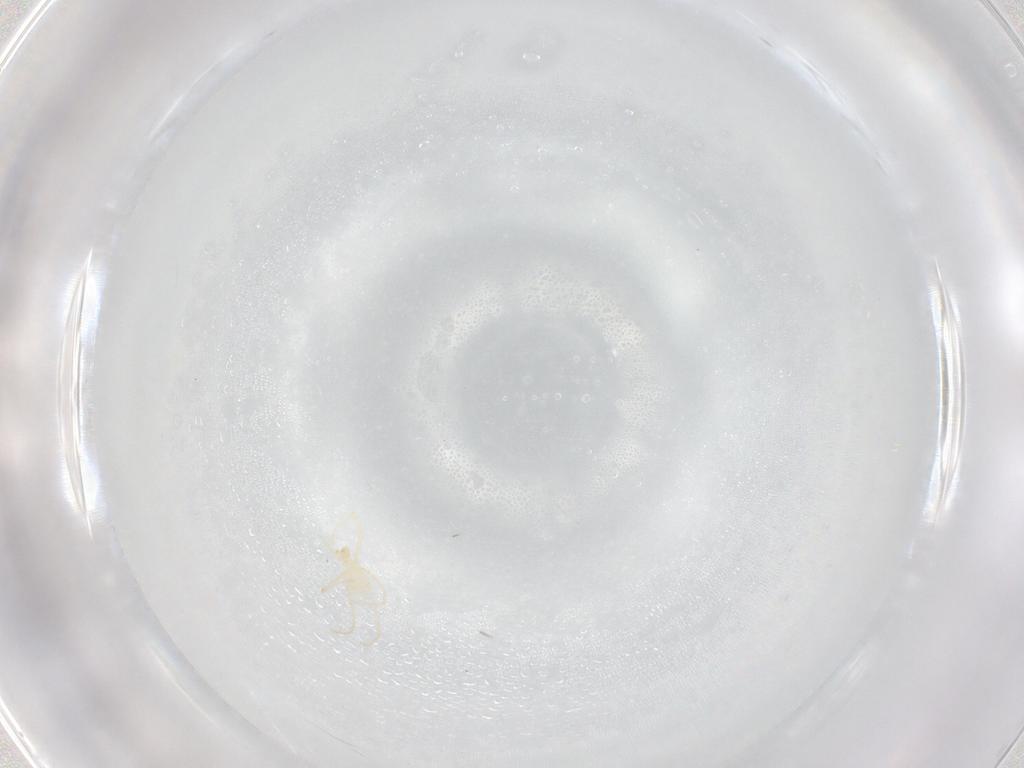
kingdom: Animalia
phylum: Arthropoda
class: Arachnida
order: Trombidiformes
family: Erythraeidae
